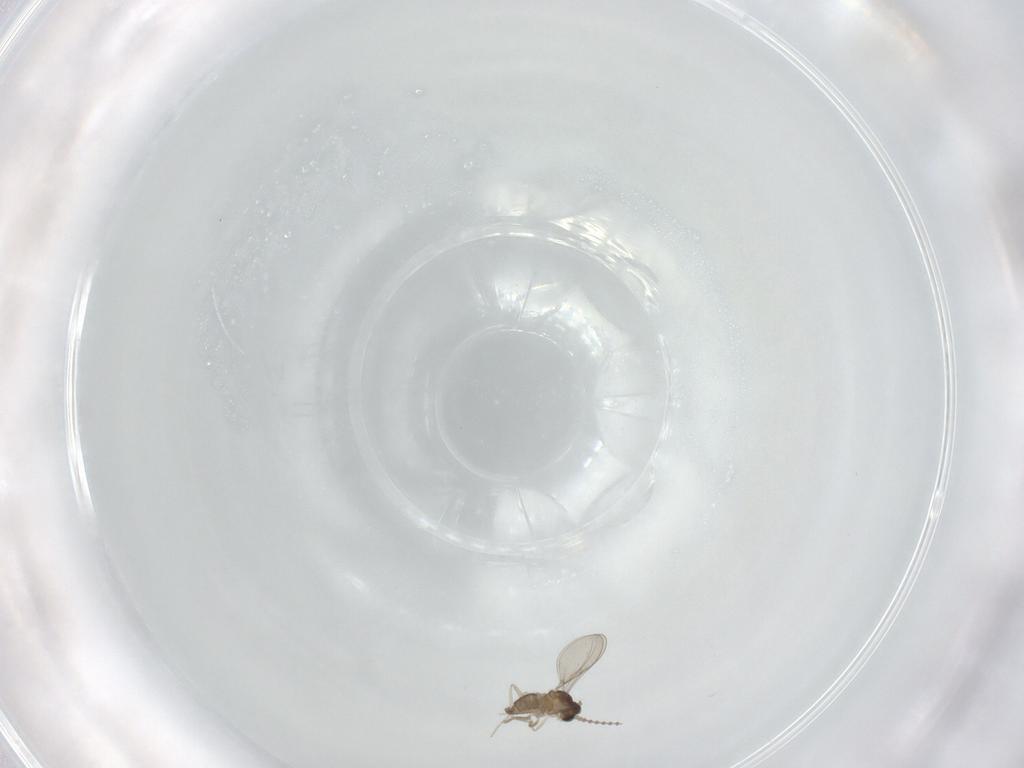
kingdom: Animalia
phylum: Arthropoda
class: Insecta
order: Diptera
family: Cecidomyiidae
